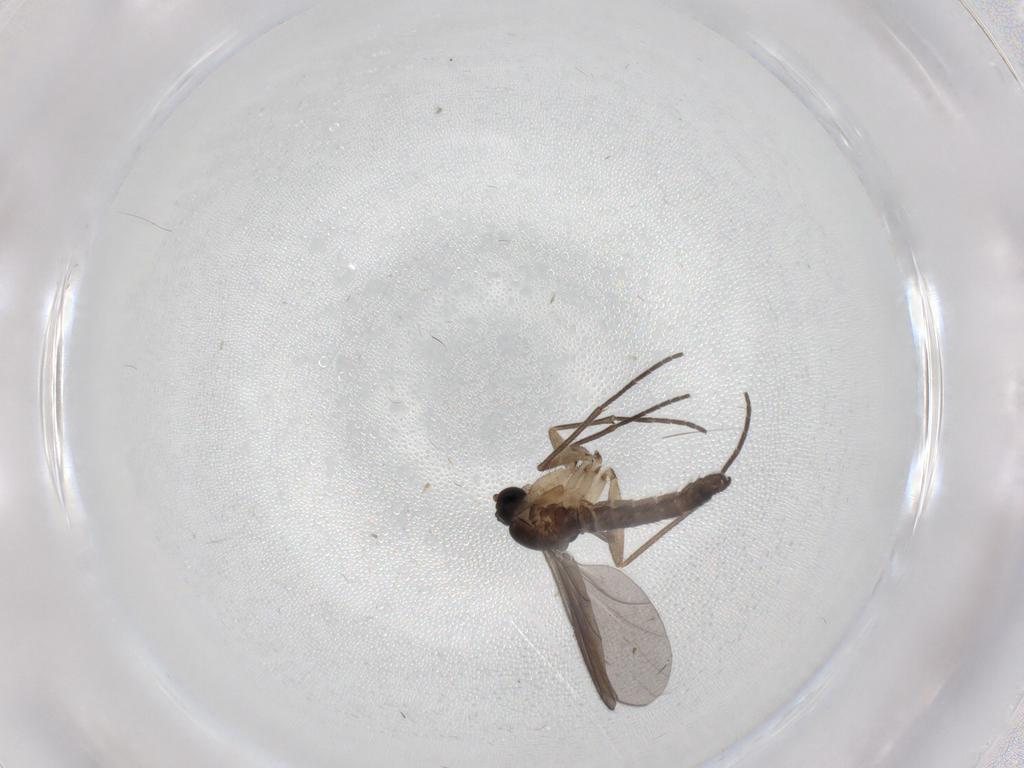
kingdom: Animalia
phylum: Arthropoda
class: Insecta
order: Diptera
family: Sciaridae
